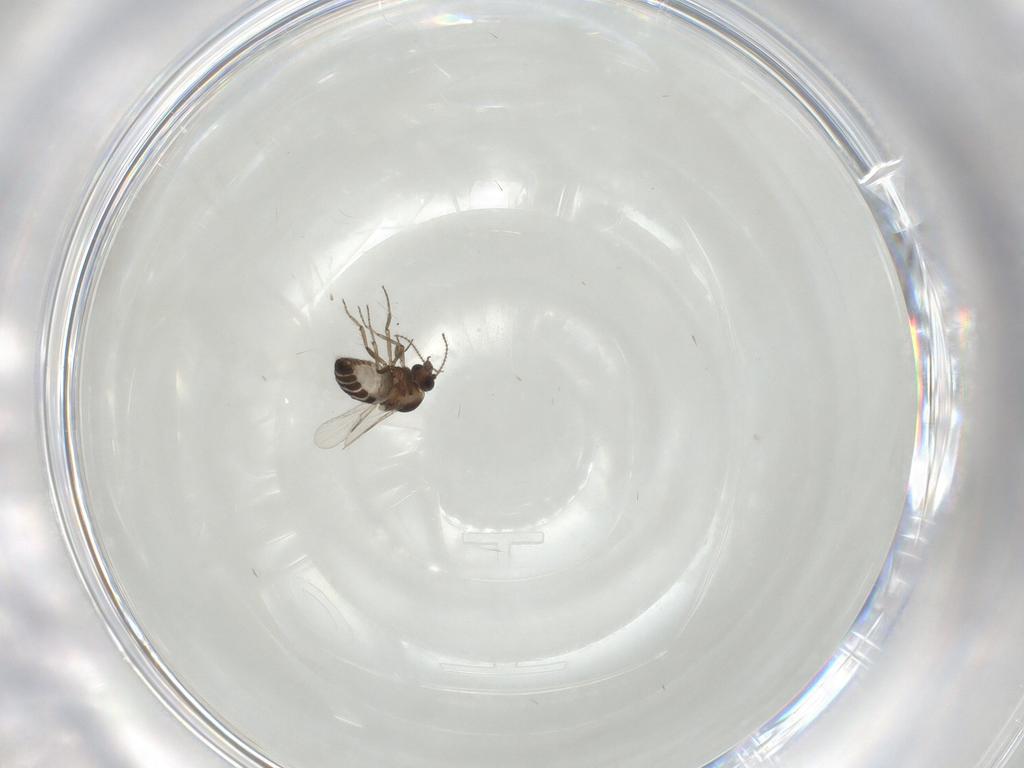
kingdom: Animalia
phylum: Arthropoda
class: Insecta
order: Diptera
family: Ceratopogonidae
